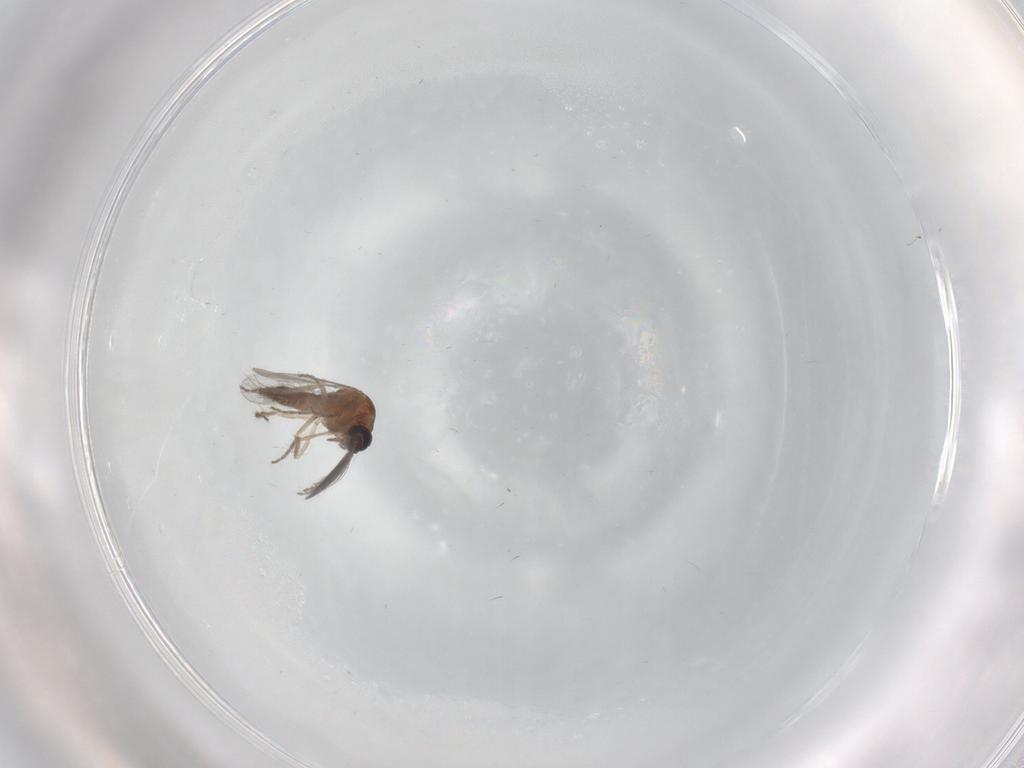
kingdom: Animalia
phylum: Arthropoda
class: Insecta
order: Diptera
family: Ceratopogonidae
